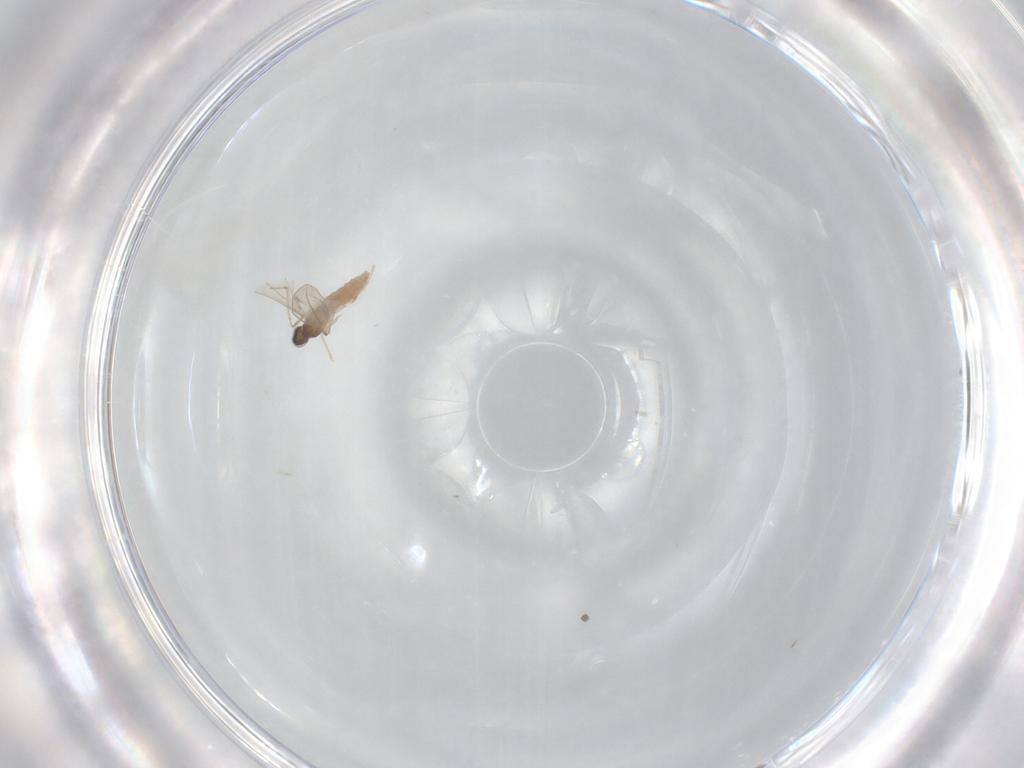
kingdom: Animalia
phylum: Arthropoda
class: Insecta
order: Diptera
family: Cecidomyiidae
